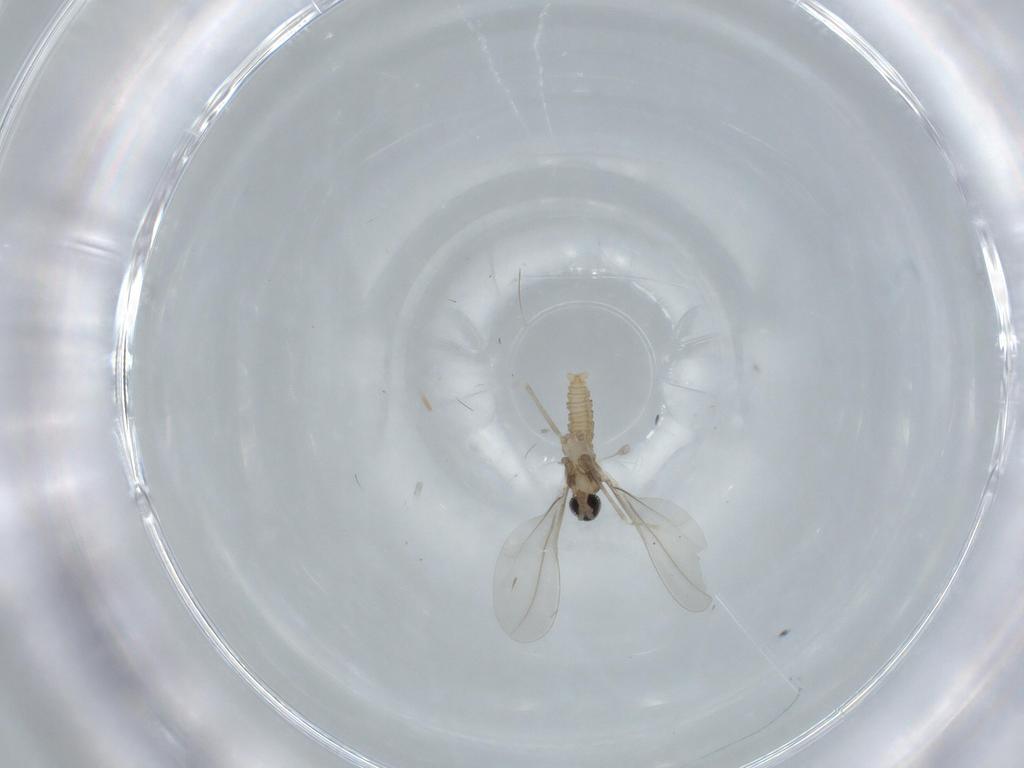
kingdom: Animalia
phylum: Arthropoda
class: Insecta
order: Diptera
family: Cecidomyiidae
